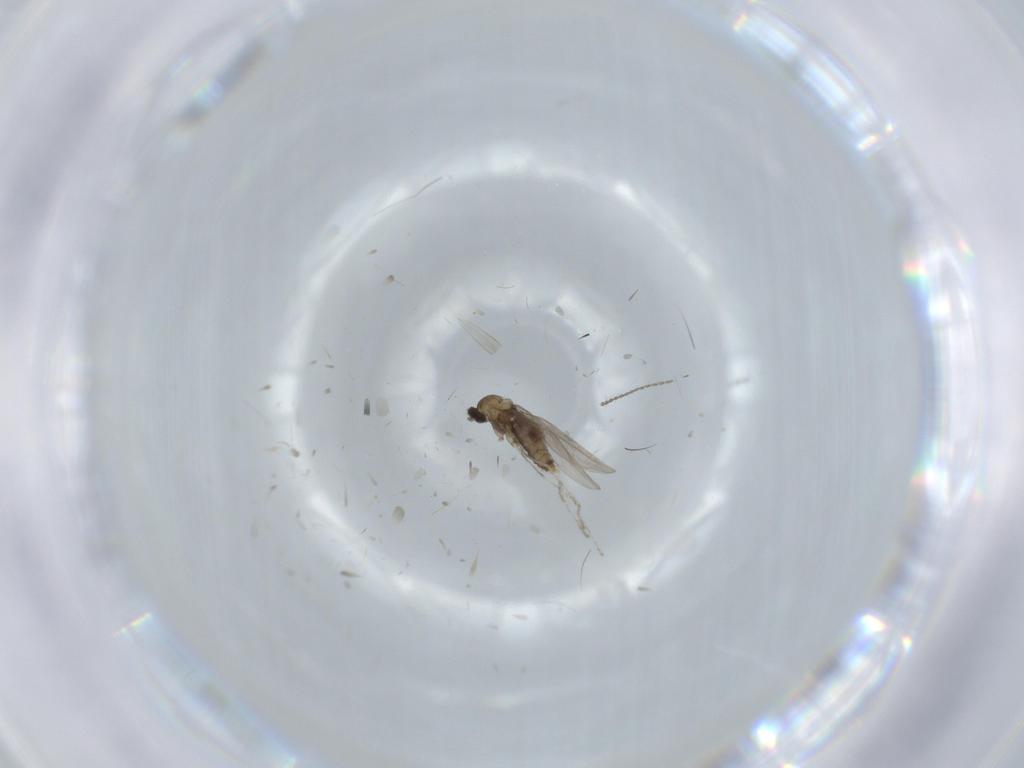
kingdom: Animalia
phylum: Arthropoda
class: Insecta
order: Diptera
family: Ceratopogonidae
